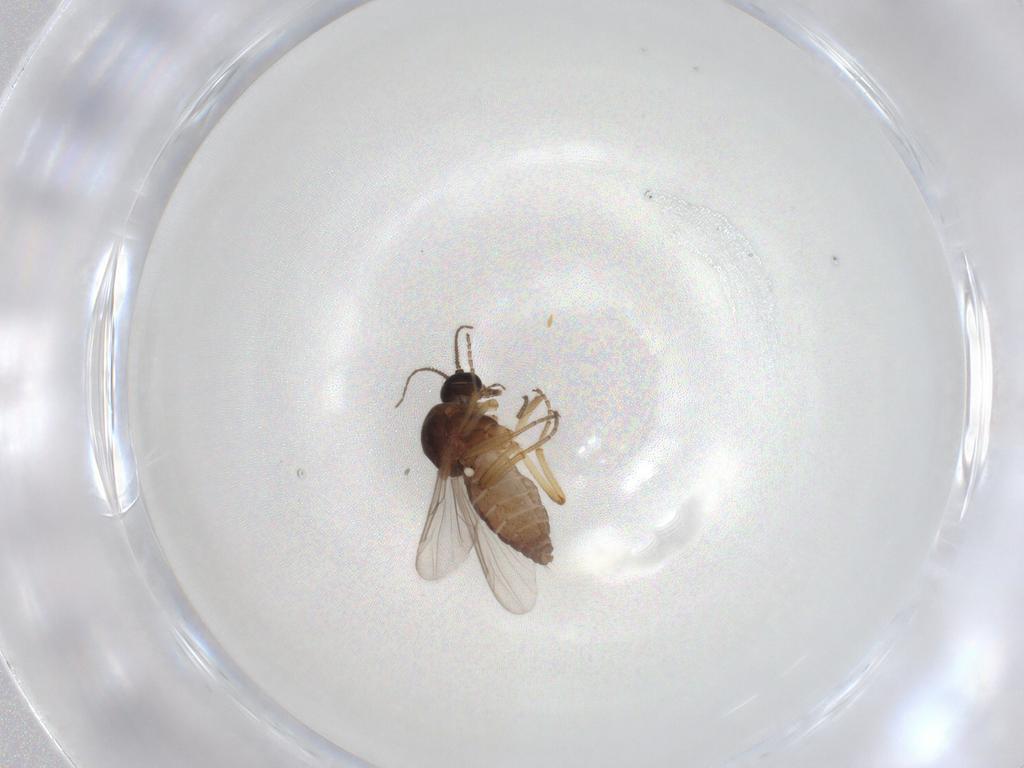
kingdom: Animalia
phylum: Arthropoda
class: Insecta
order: Diptera
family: Ceratopogonidae
